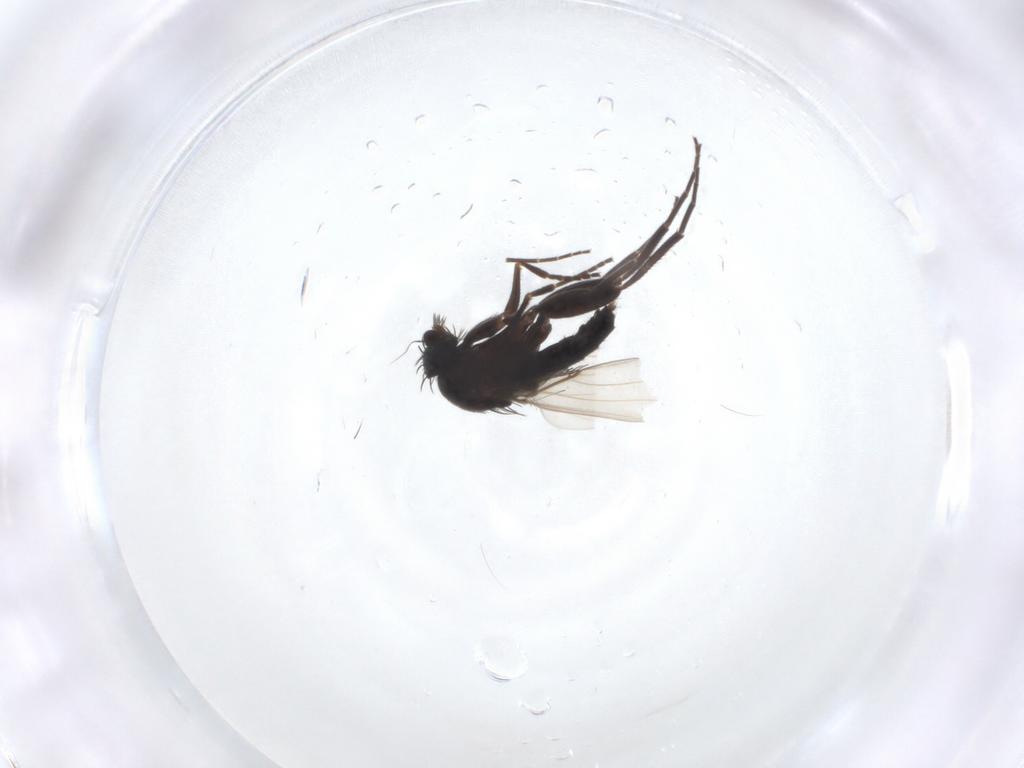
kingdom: Animalia
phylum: Arthropoda
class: Insecta
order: Diptera
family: Phoridae
